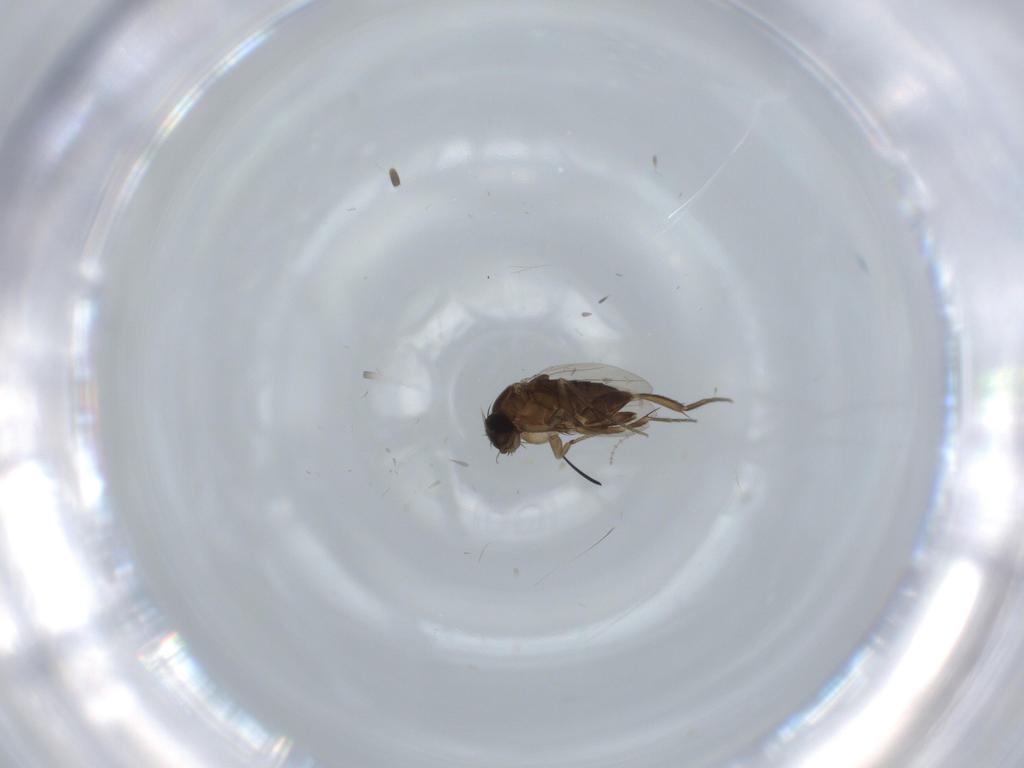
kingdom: Animalia
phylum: Arthropoda
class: Insecta
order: Diptera
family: Phoridae
